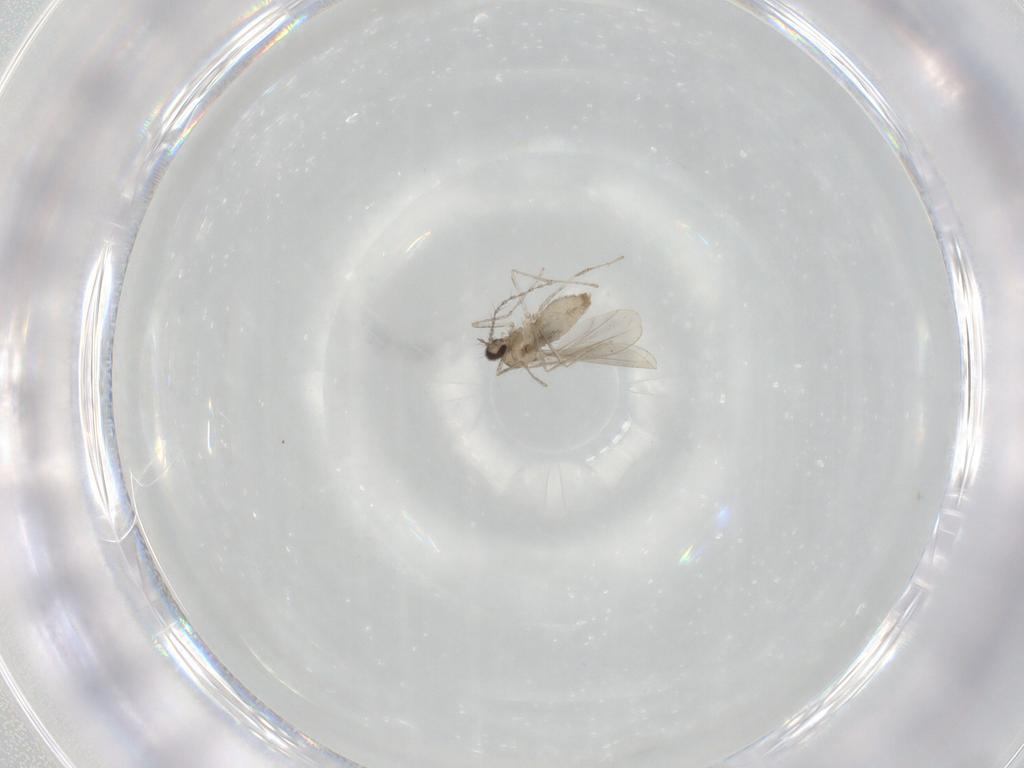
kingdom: Animalia
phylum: Arthropoda
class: Insecta
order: Diptera
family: Cecidomyiidae
